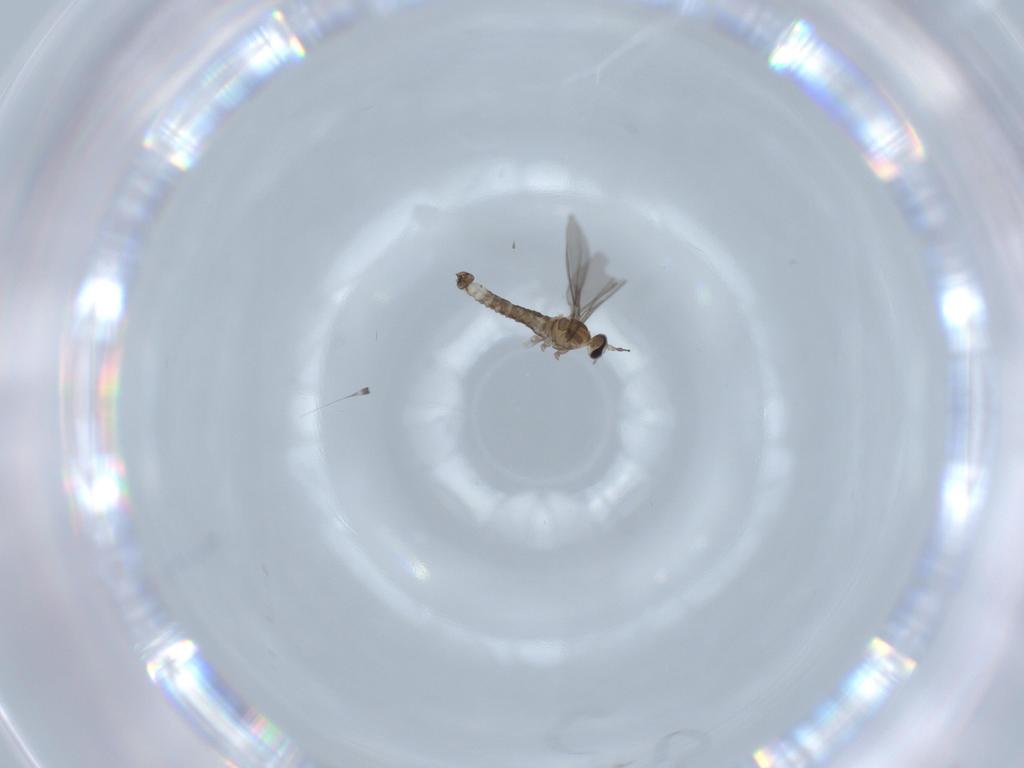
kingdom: Animalia
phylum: Arthropoda
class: Insecta
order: Diptera
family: Cecidomyiidae
